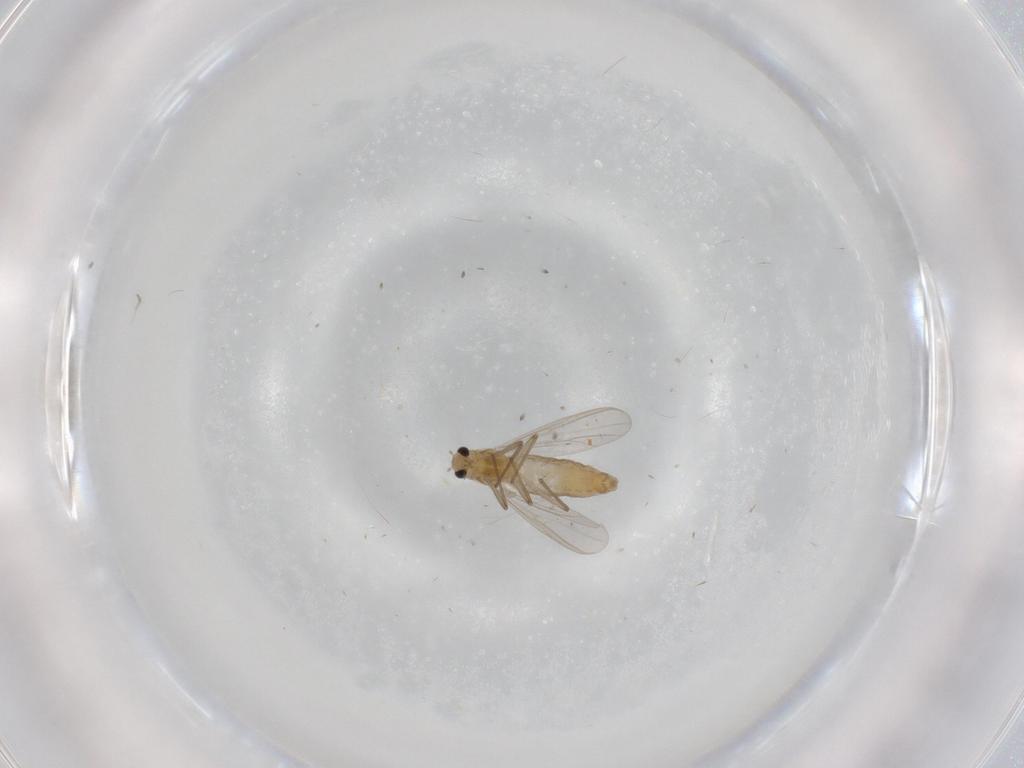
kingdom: Animalia
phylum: Arthropoda
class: Insecta
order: Diptera
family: Chironomidae
